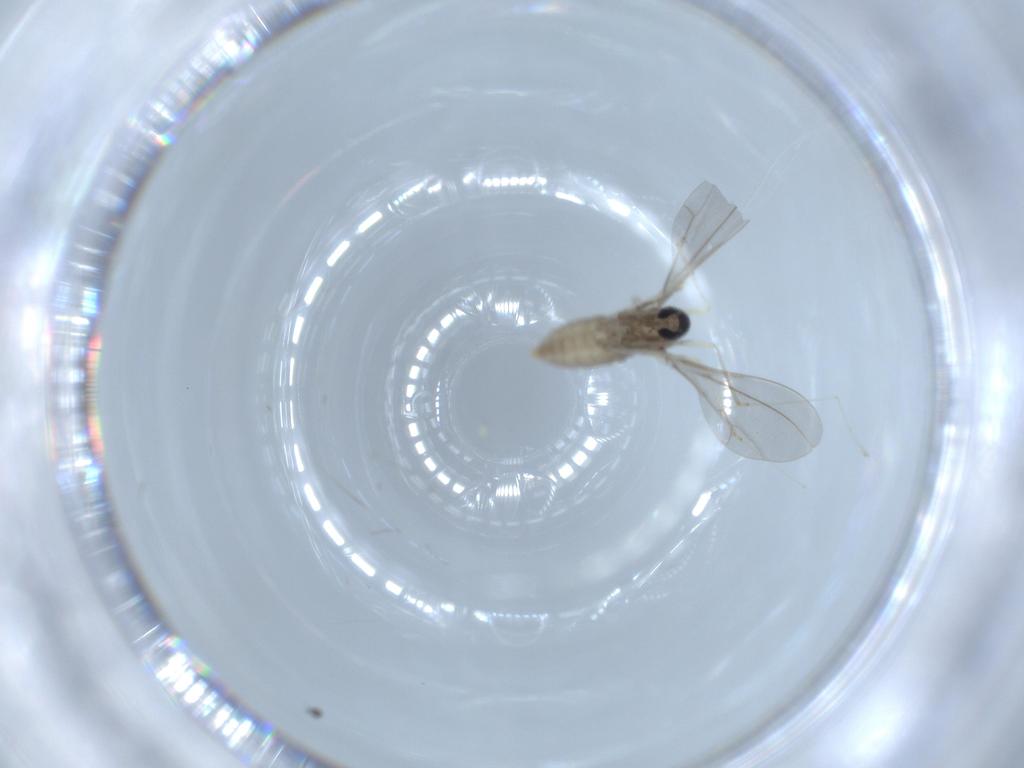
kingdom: Animalia
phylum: Arthropoda
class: Insecta
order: Diptera
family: Cecidomyiidae
